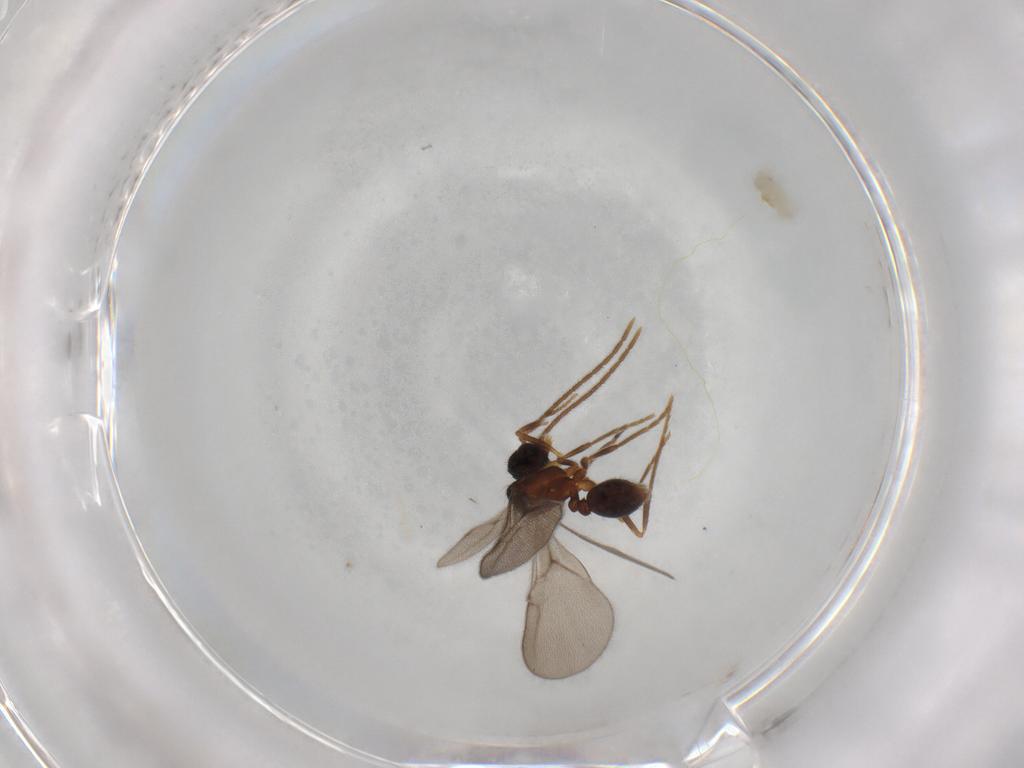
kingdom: Animalia
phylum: Arthropoda
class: Insecta
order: Hymenoptera
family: Formicidae
